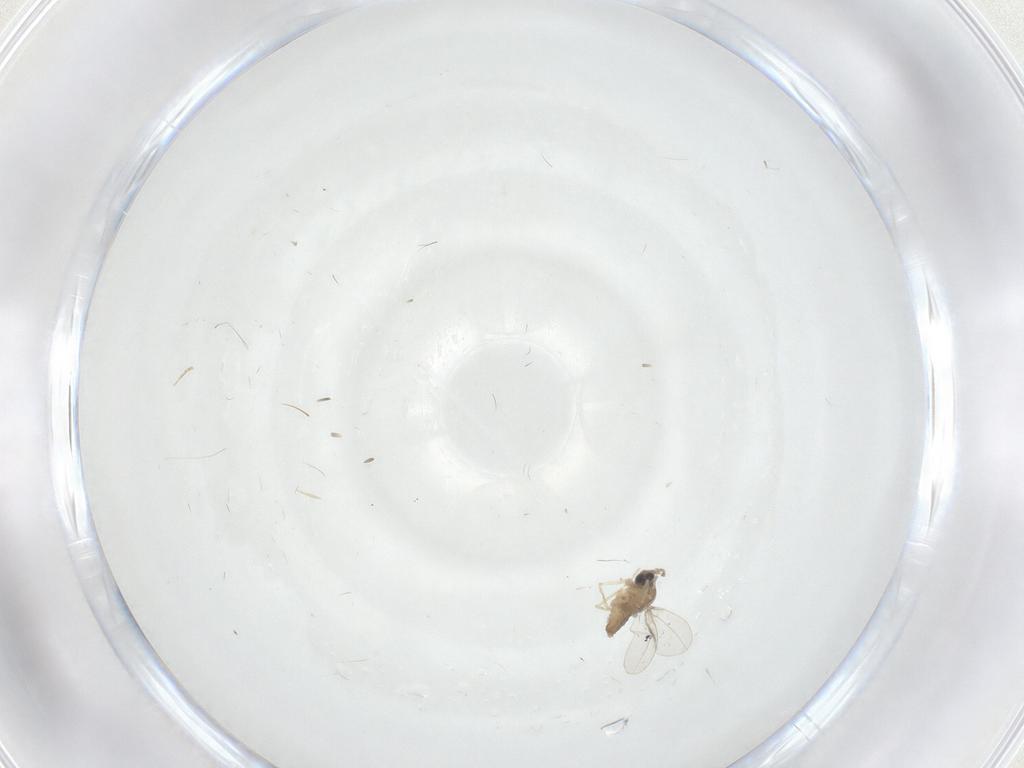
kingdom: Animalia
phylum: Arthropoda
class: Insecta
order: Diptera
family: Cecidomyiidae
